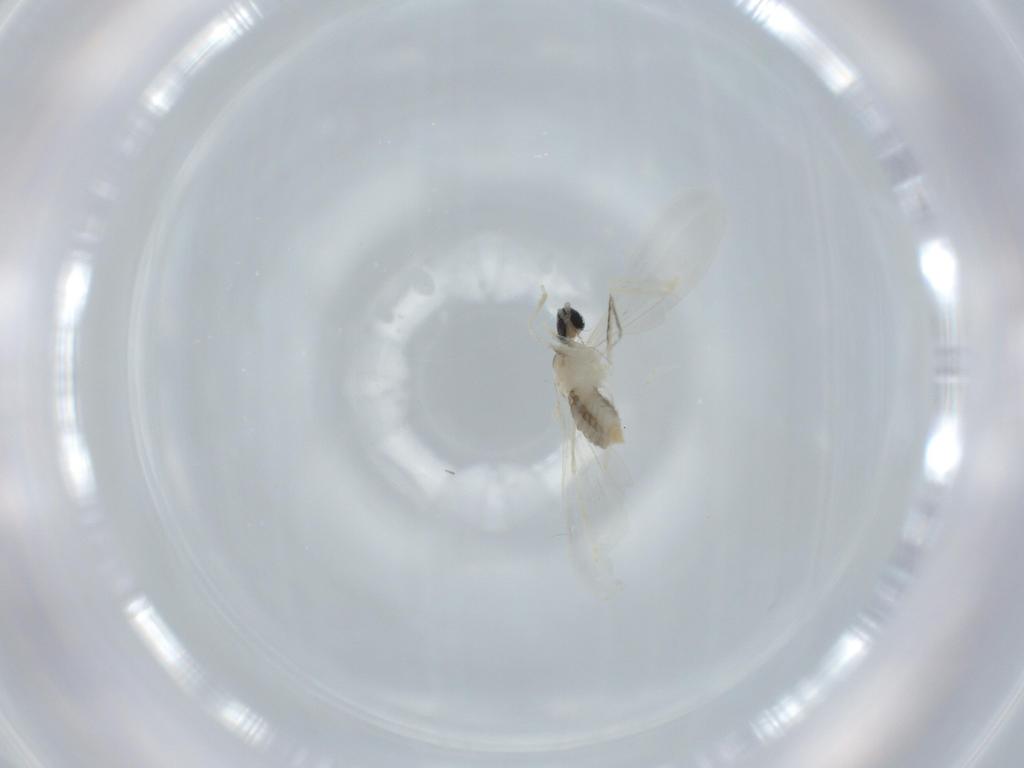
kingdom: Animalia
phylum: Arthropoda
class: Insecta
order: Diptera
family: Cecidomyiidae
